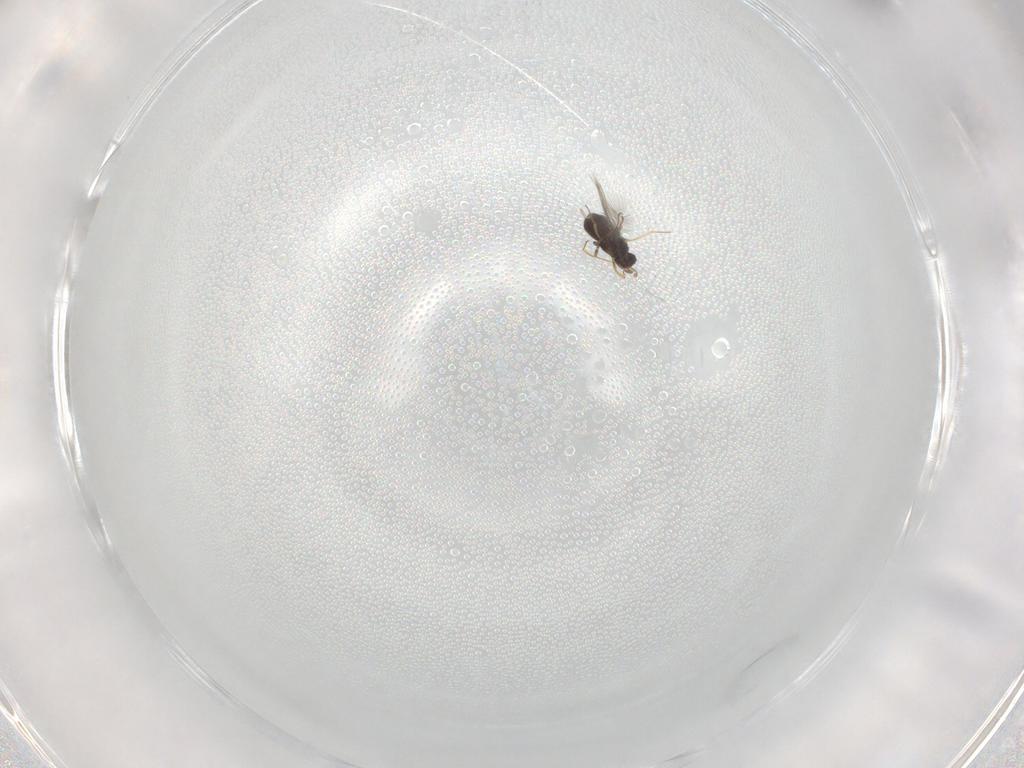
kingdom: Animalia
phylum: Arthropoda
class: Insecta
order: Hymenoptera
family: Mymaridae
